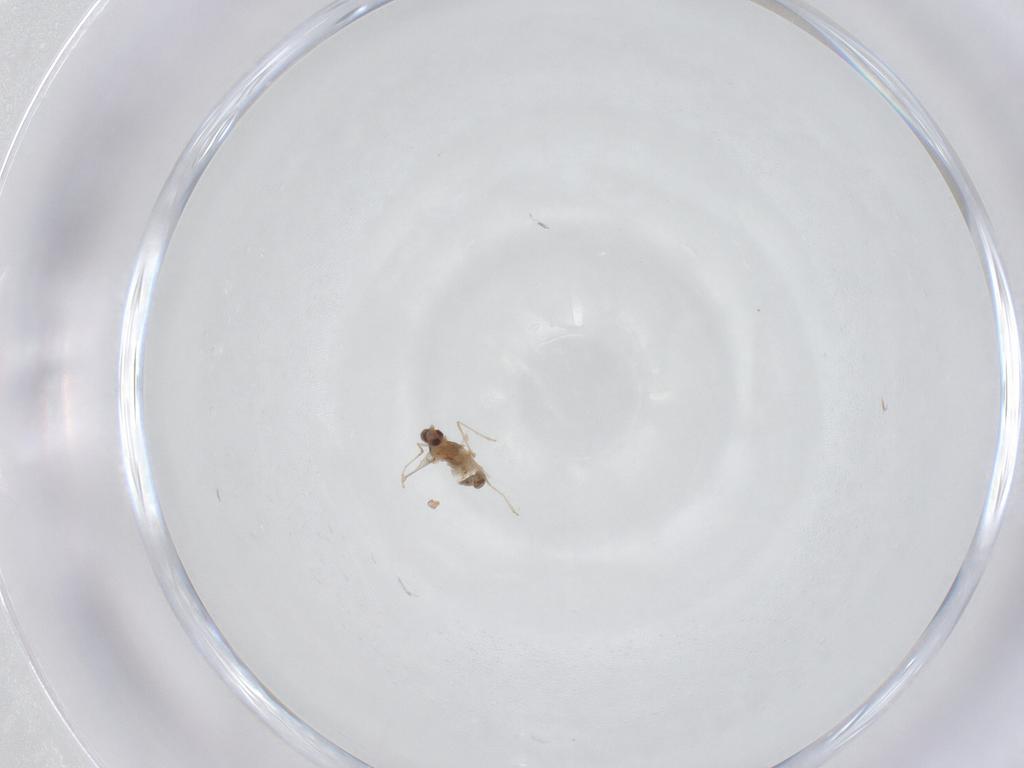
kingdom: Animalia
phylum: Arthropoda
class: Insecta
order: Diptera
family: Cecidomyiidae
